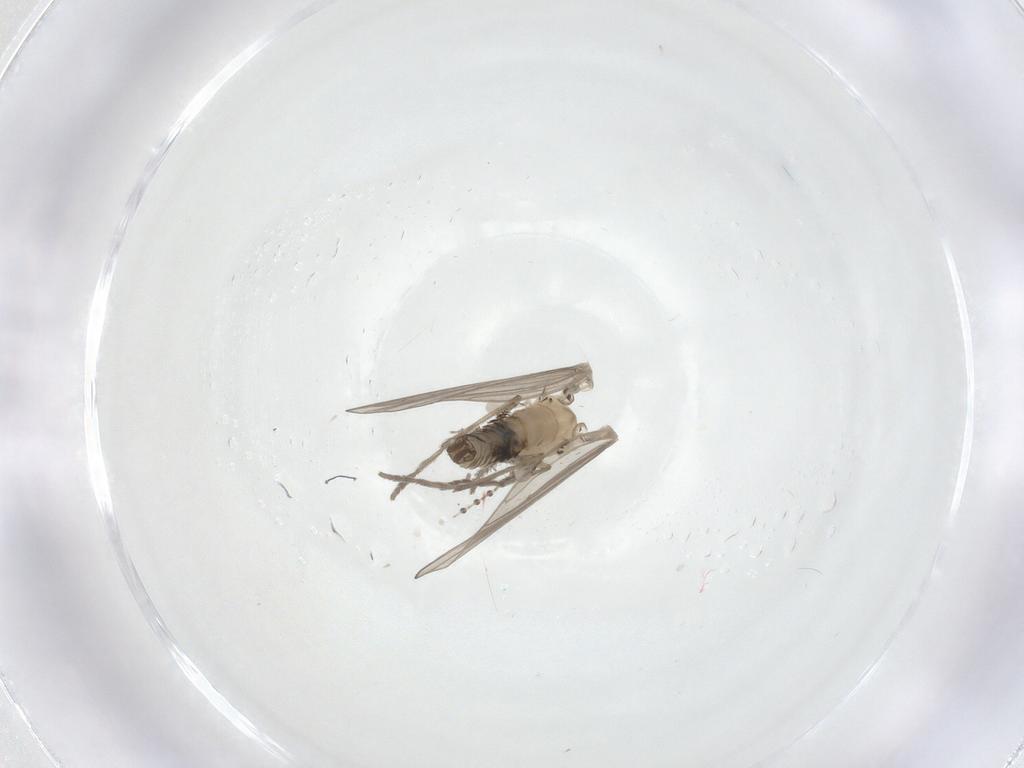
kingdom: Animalia
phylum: Arthropoda
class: Insecta
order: Diptera
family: Psychodidae
